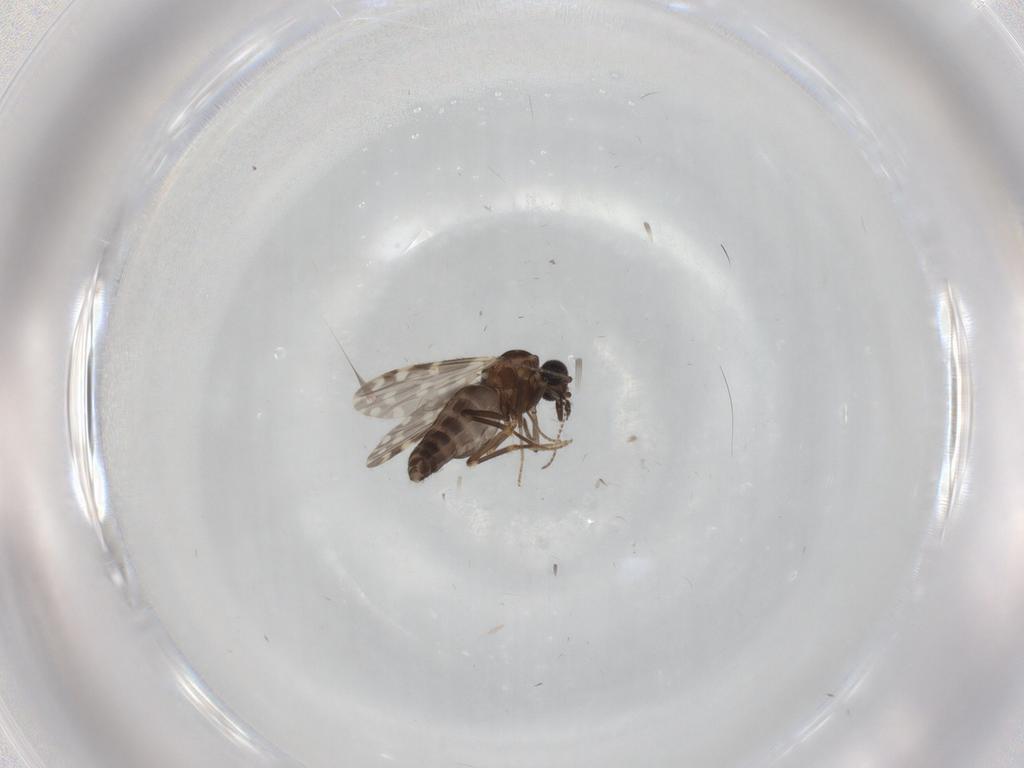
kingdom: Animalia
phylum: Arthropoda
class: Insecta
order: Diptera
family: Ceratopogonidae
